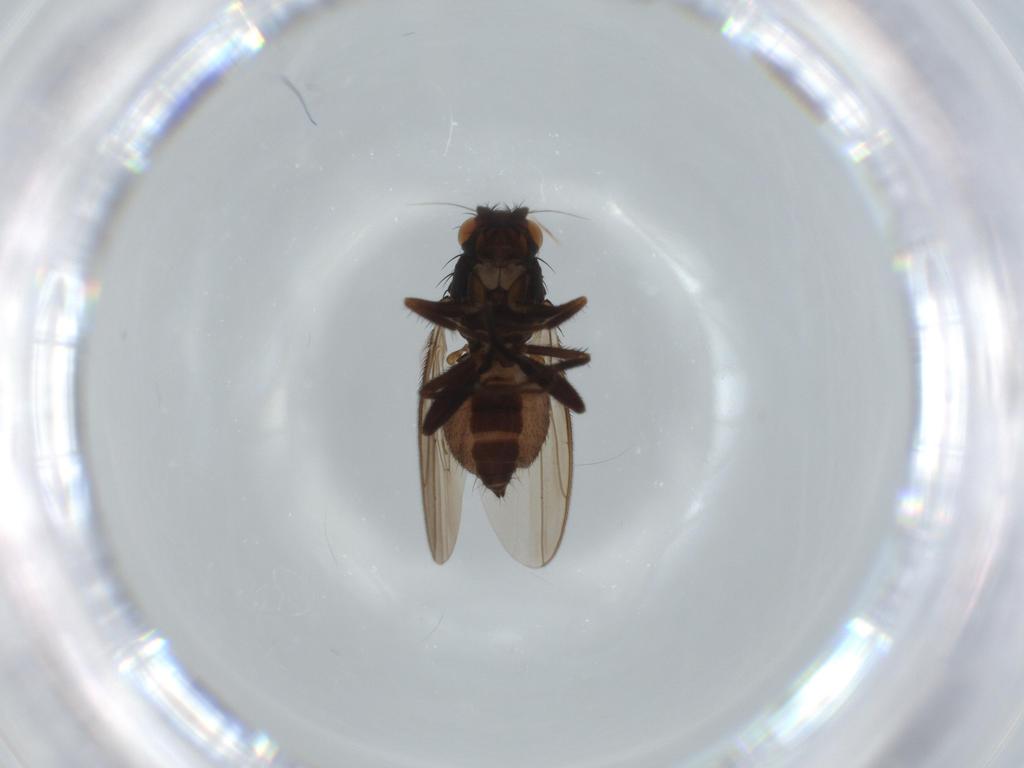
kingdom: Animalia
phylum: Arthropoda
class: Insecta
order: Diptera
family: Sphaeroceridae
